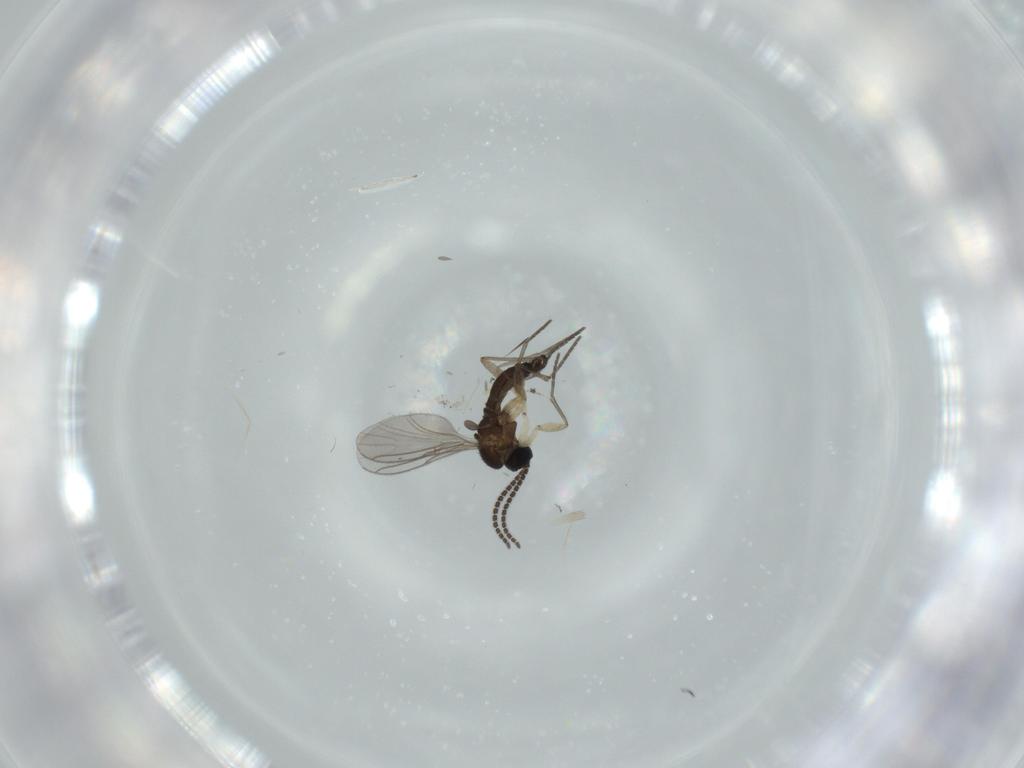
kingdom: Animalia
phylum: Arthropoda
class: Insecta
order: Diptera
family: Sciaridae
